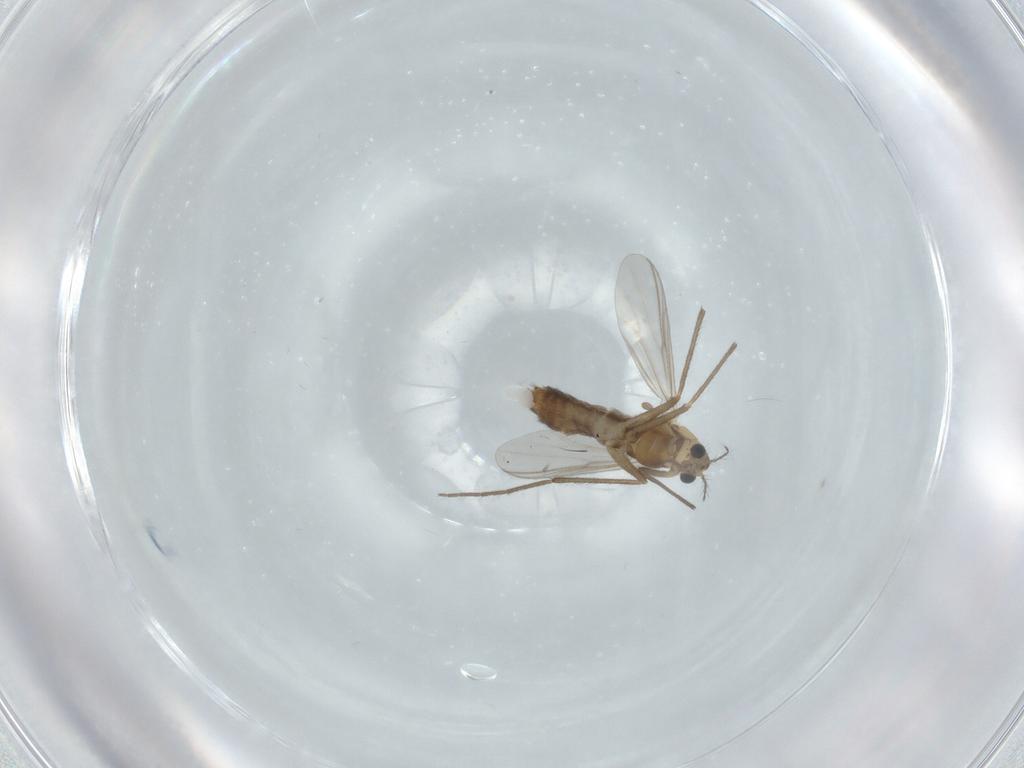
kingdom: Animalia
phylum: Arthropoda
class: Insecta
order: Diptera
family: Chironomidae
